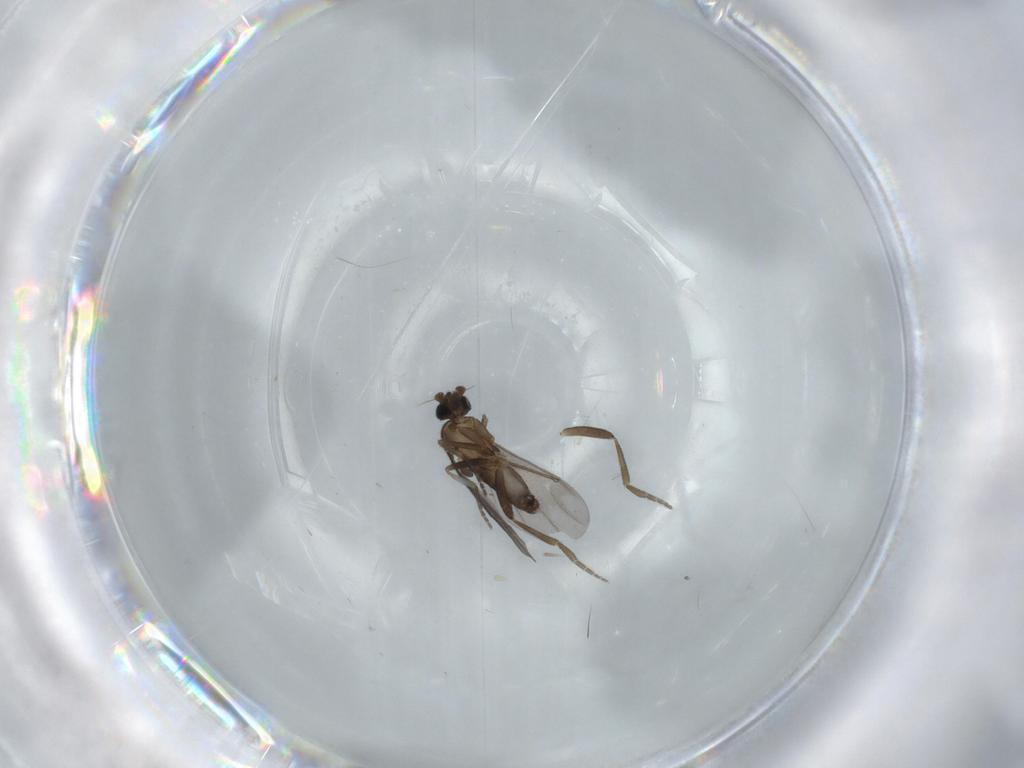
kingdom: Animalia
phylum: Arthropoda
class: Insecta
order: Diptera
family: Phoridae
